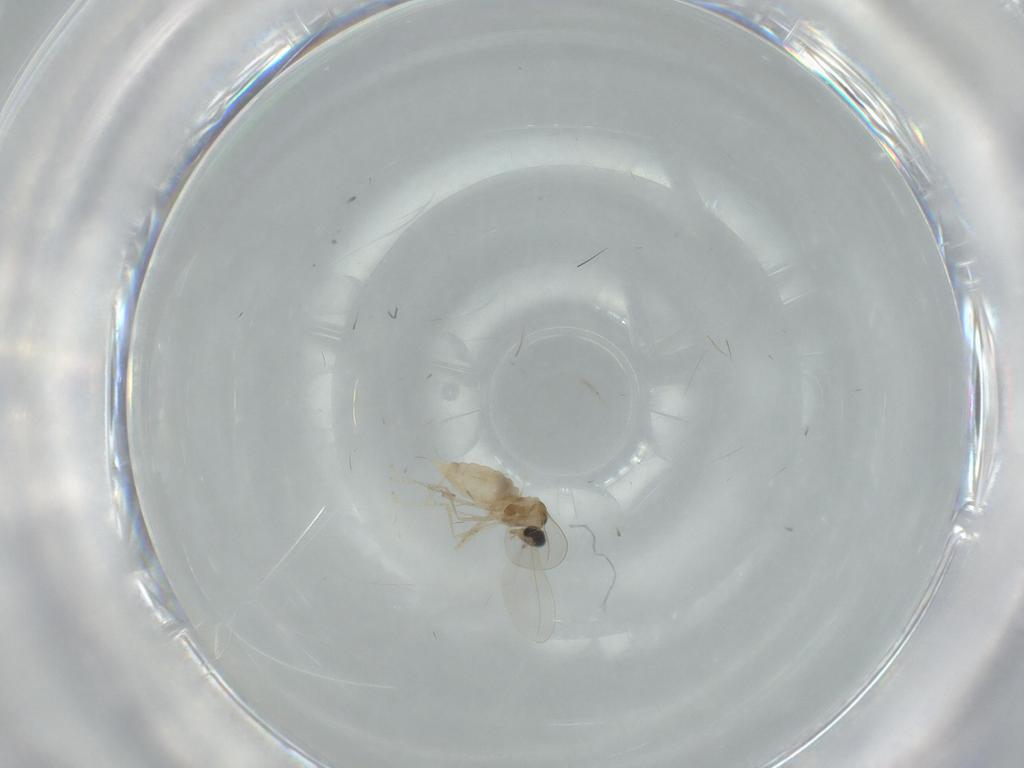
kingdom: Animalia
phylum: Arthropoda
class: Insecta
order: Diptera
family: Cecidomyiidae
